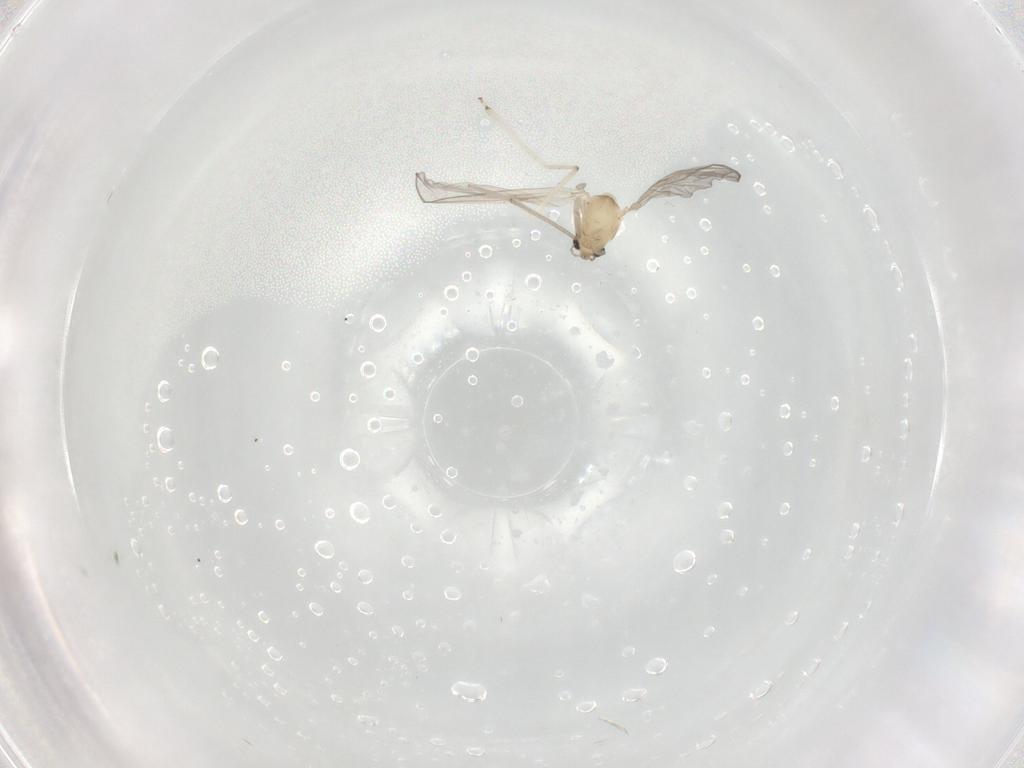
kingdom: Animalia
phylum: Arthropoda
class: Insecta
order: Diptera
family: Chironomidae
